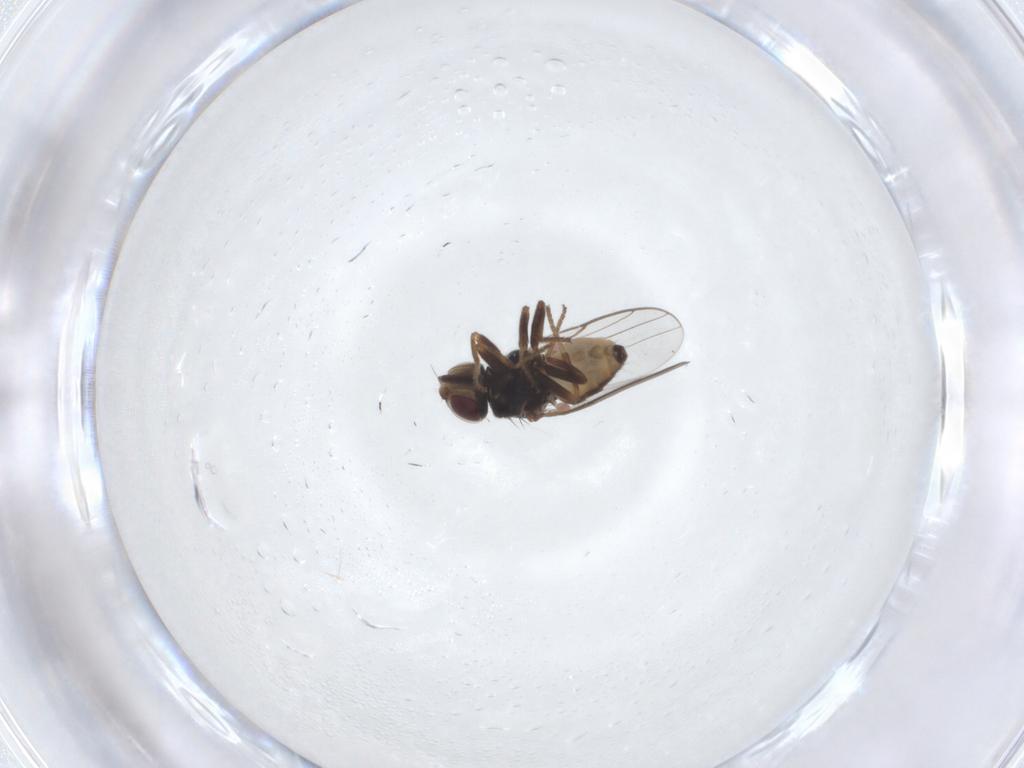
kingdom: Animalia
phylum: Arthropoda
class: Insecta
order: Diptera
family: Chloropidae
